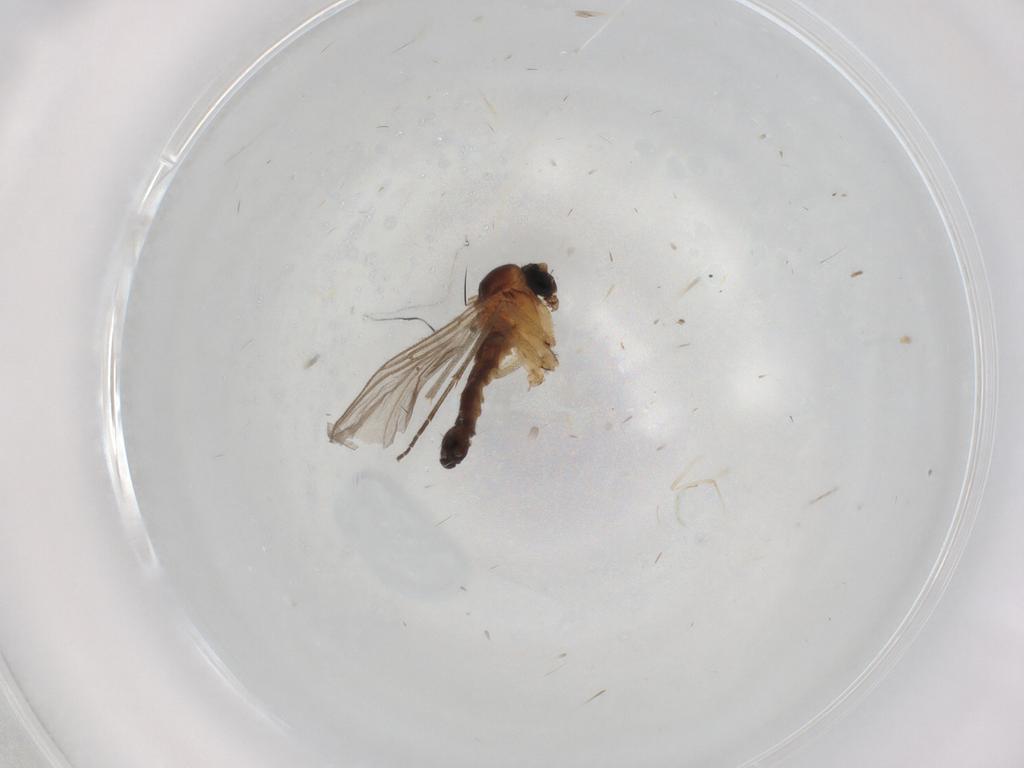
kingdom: Animalia
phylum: Arthropoda
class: Insecta
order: Diptera
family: Sciaridae
